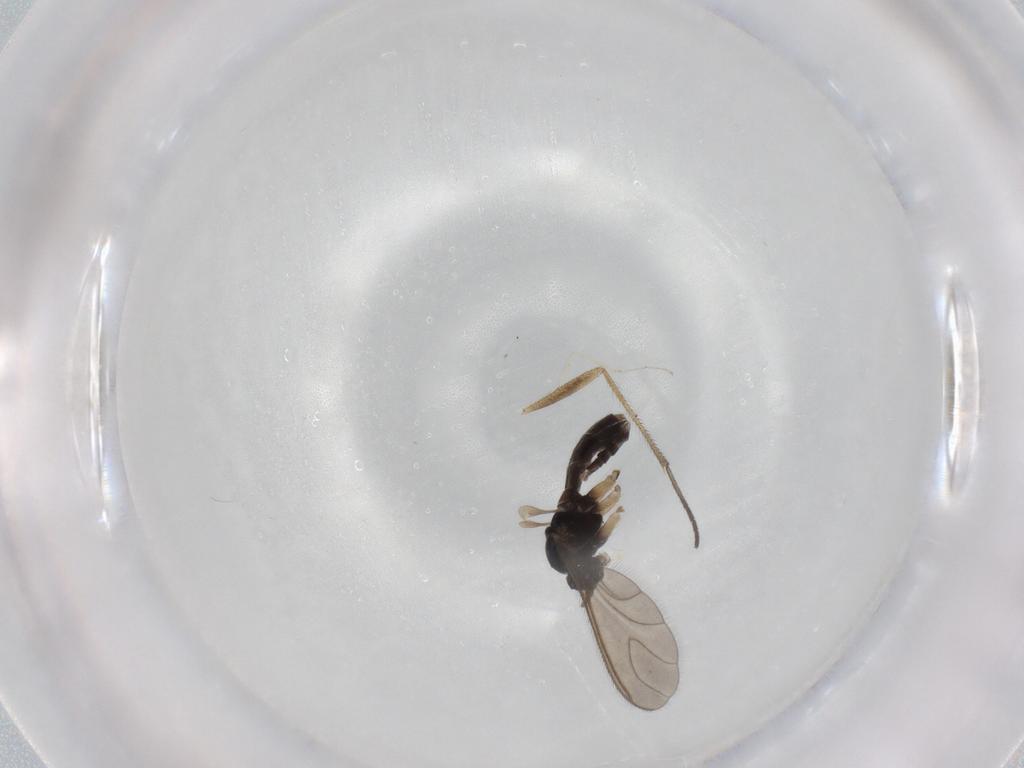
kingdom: Animalia
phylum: Arthropoda
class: Insecta
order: Diptera
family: Sciaridae
